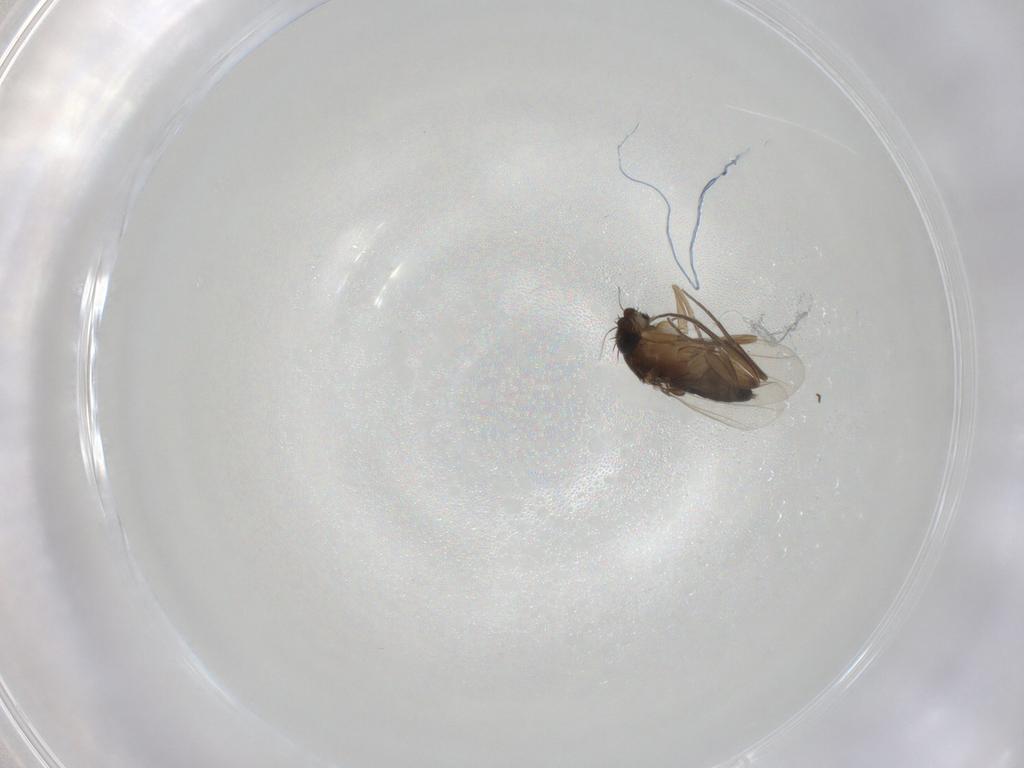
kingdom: Animalia
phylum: Arthropoda
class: Insecta
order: Diptera
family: Phoridae
